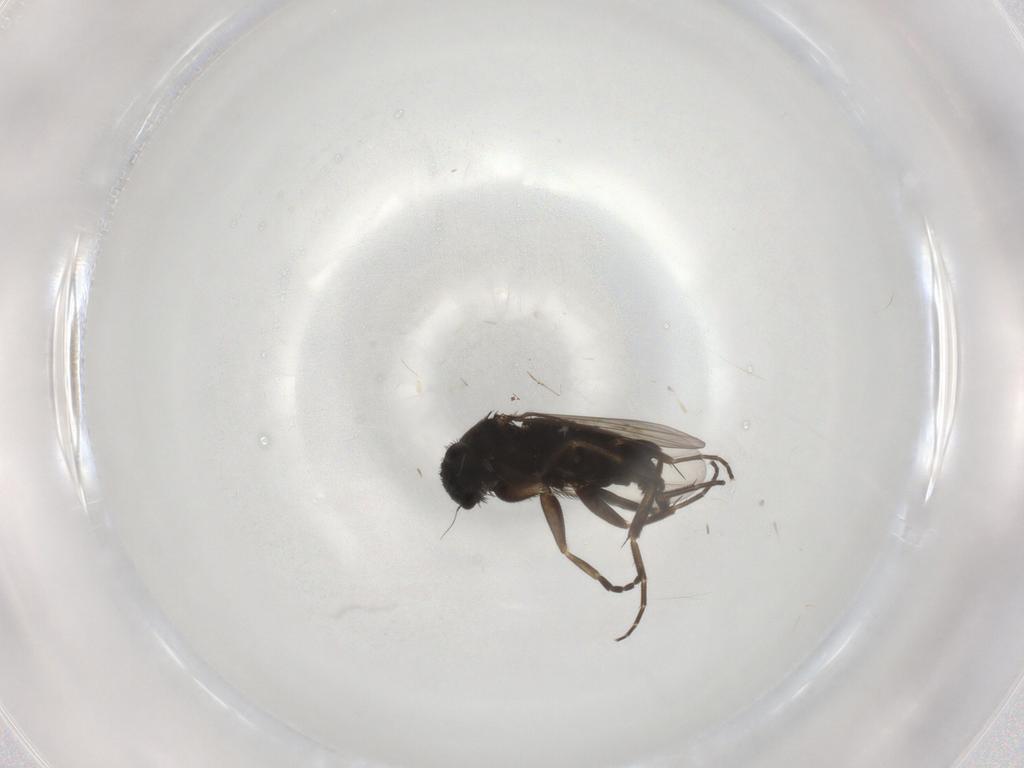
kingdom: Animalia
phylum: Arthropoda
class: Insecta
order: Diptera
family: Phoridae
